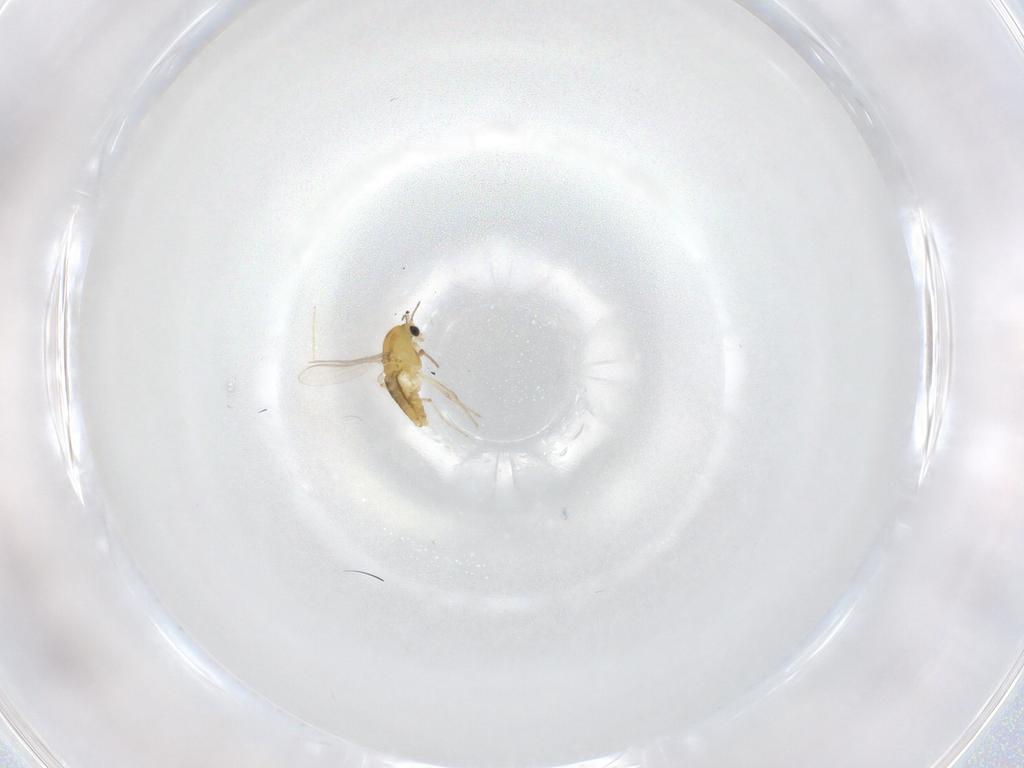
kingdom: Animalia
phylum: Arthropoda
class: Insecta
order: Diptera
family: Chironomidae
